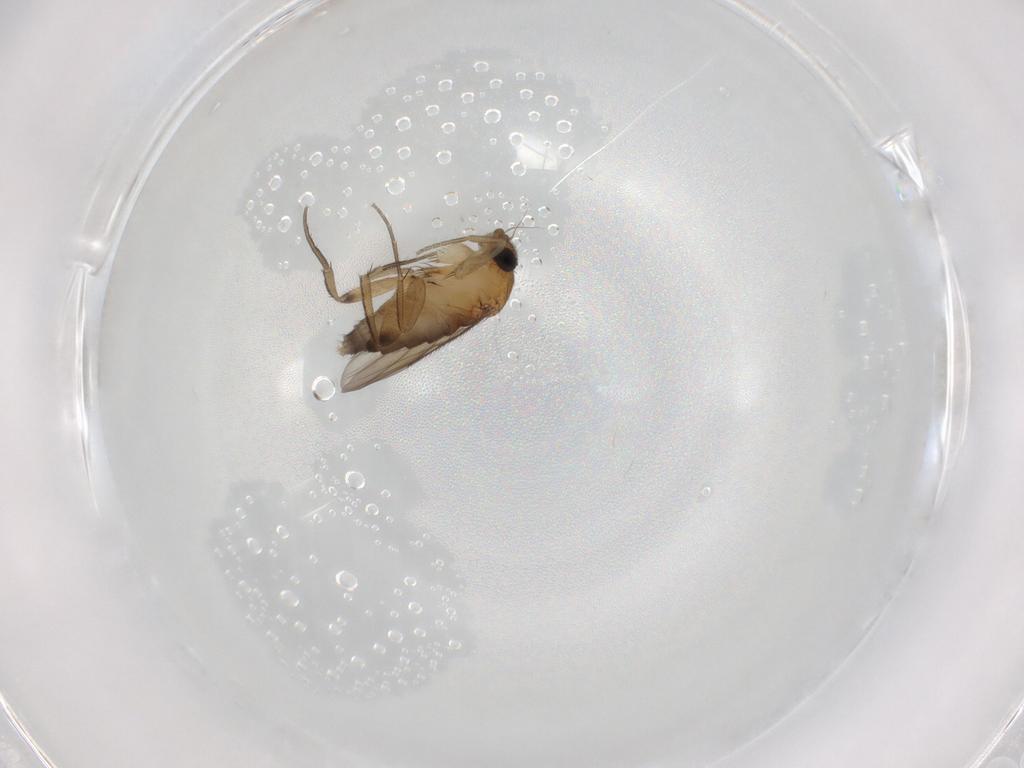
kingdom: Animalia
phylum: Arthropoda
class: Insecta
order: Diptera
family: Phoridae
